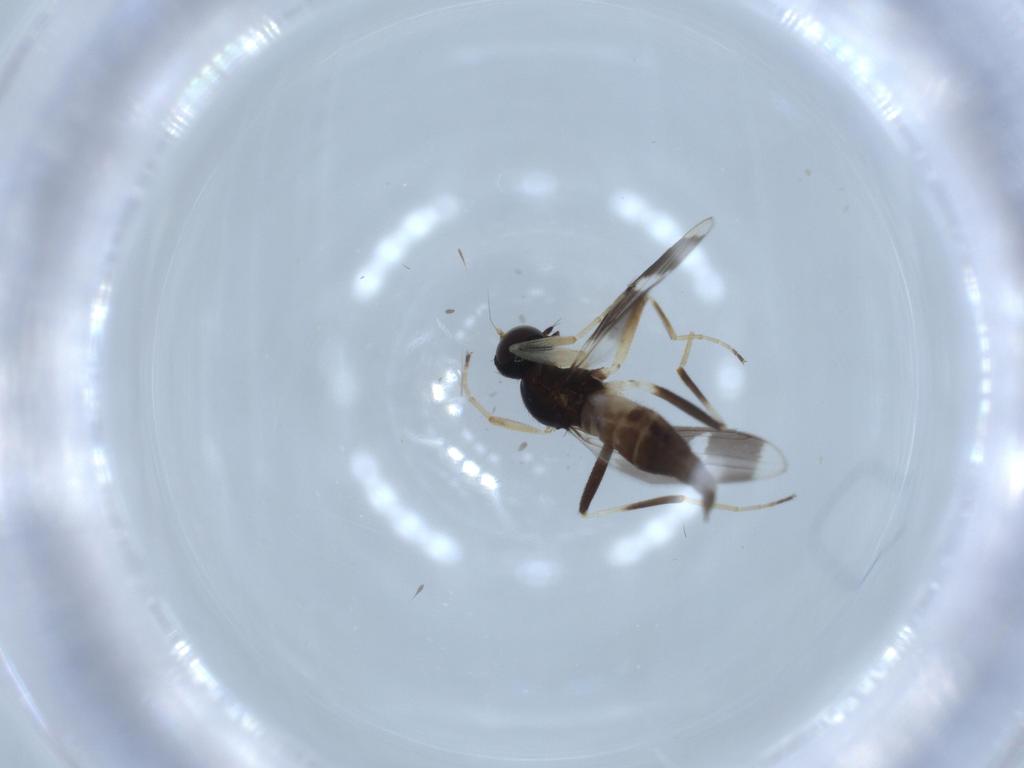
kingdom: Animalia
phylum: Arthropoda
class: Insecta
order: Diptera
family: Hybotidae
